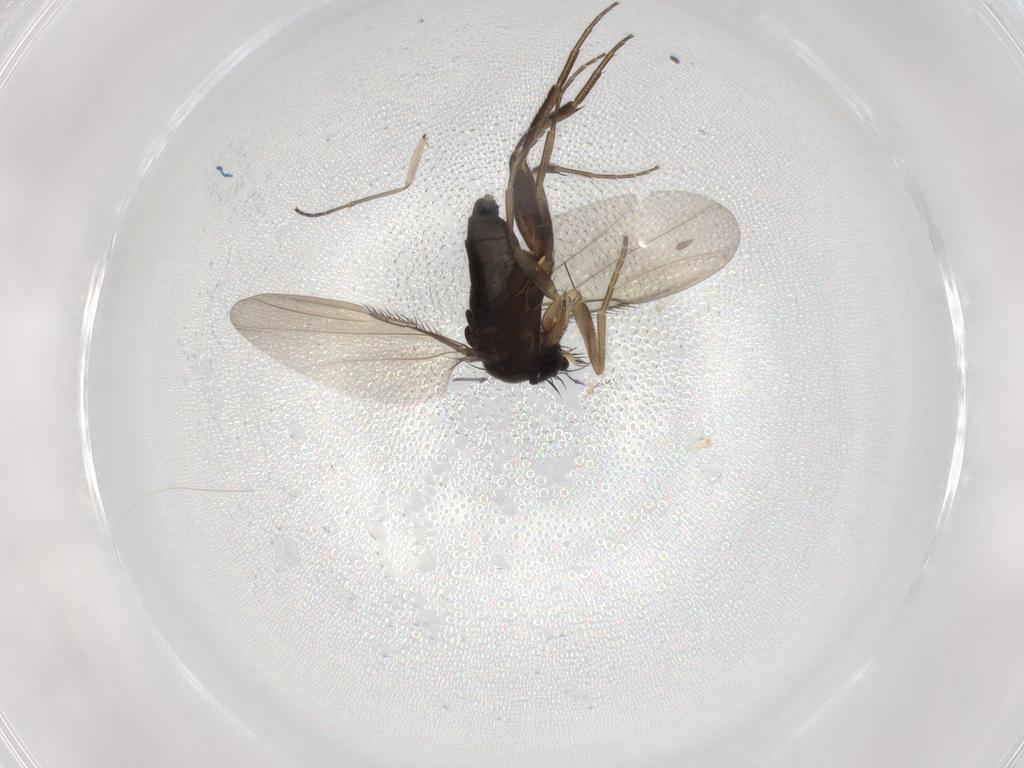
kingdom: Animalia
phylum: Arthropoda
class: Insecta
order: Diptera
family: Phoridae
